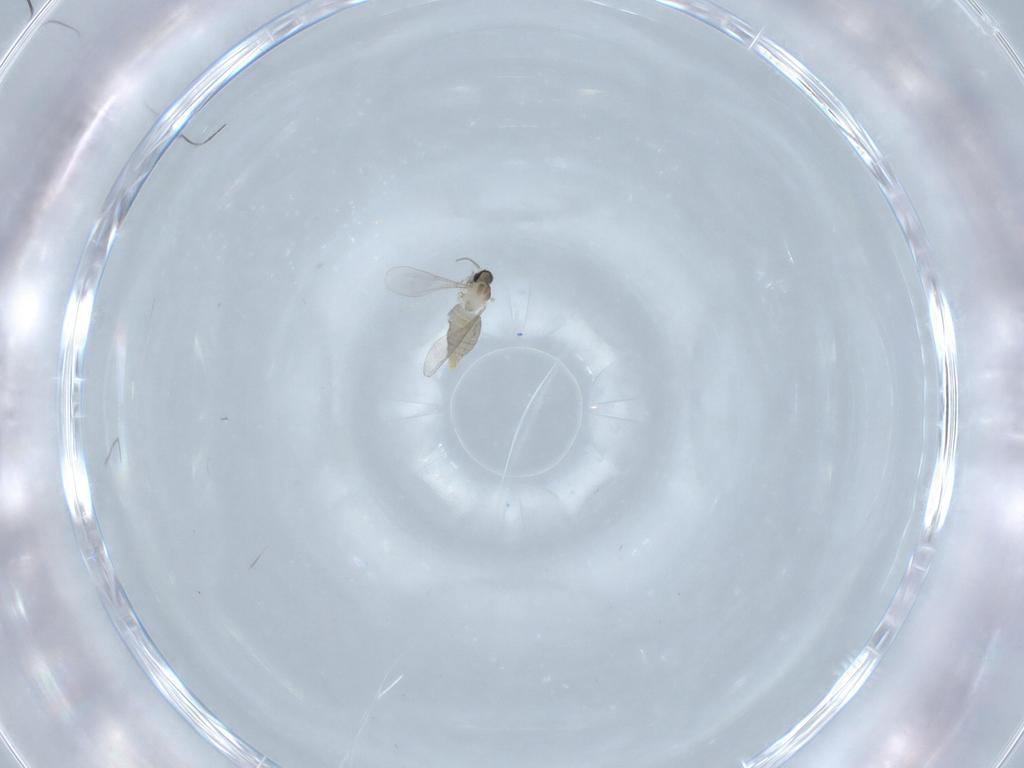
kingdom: Animalia
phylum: Arthropoda
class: Insecta
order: Diptera
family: Cecidomyiidae
